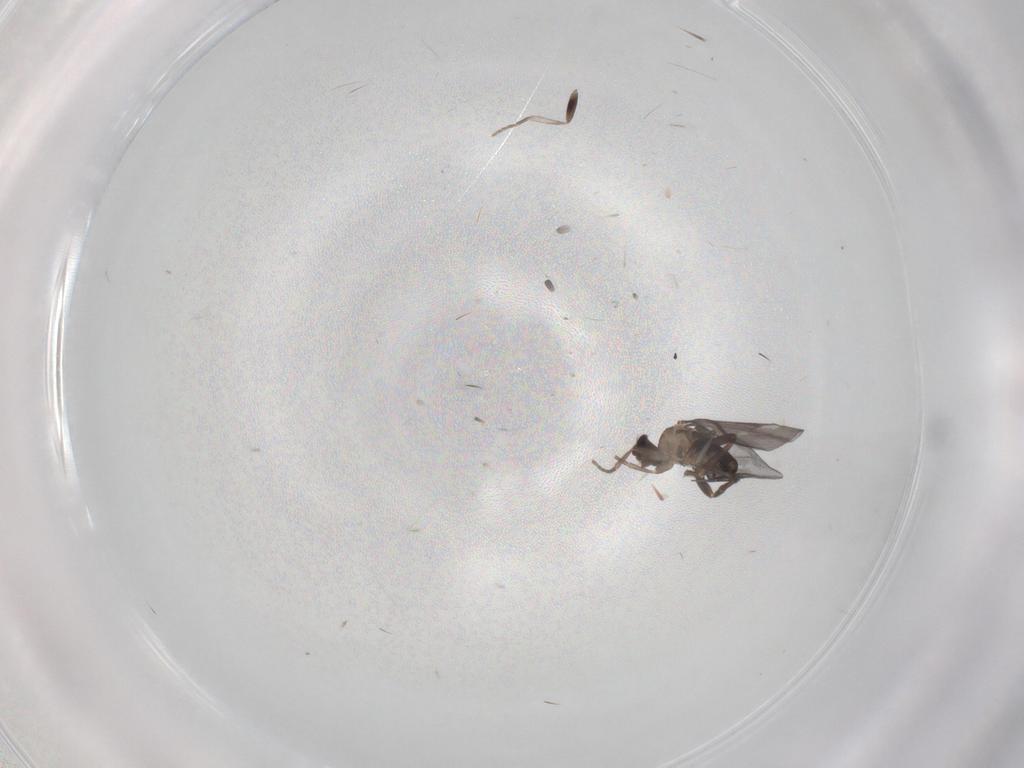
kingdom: Animalia
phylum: Arthropoda
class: Insecta
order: Diptera
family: Phoridae
